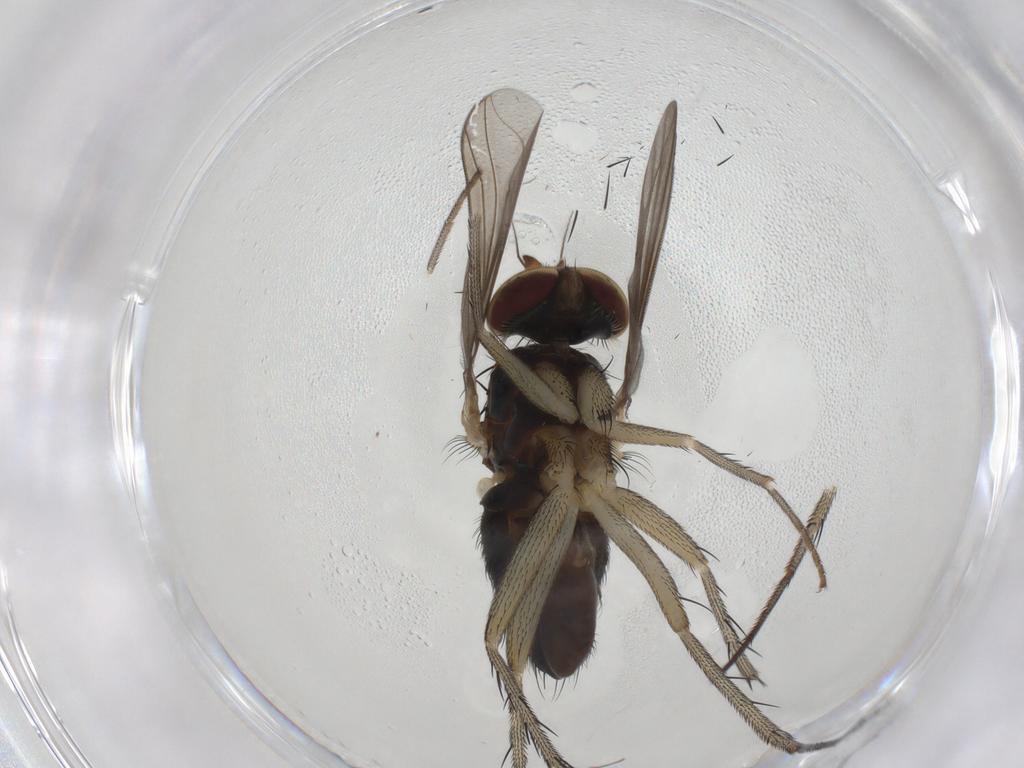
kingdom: Animalia
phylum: Arthropoda
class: Insecta
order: Diptera
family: Dolichopodidae
